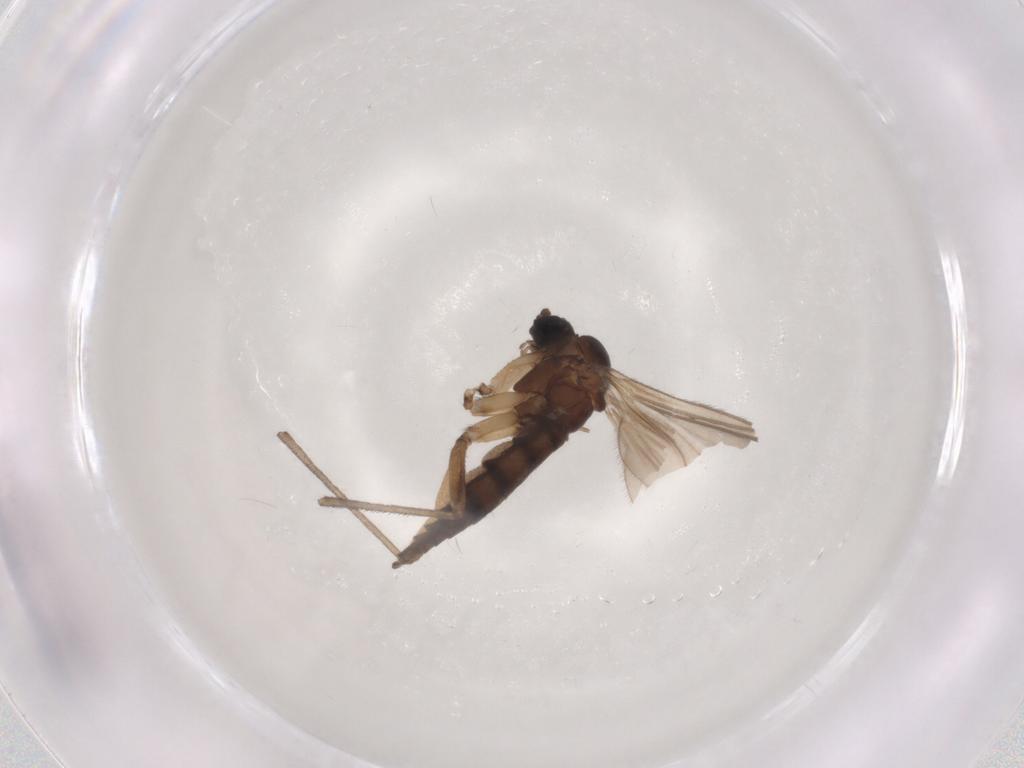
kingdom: Animalia
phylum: Arthropoda
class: Insecta
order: Diptera
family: Sciaridae
